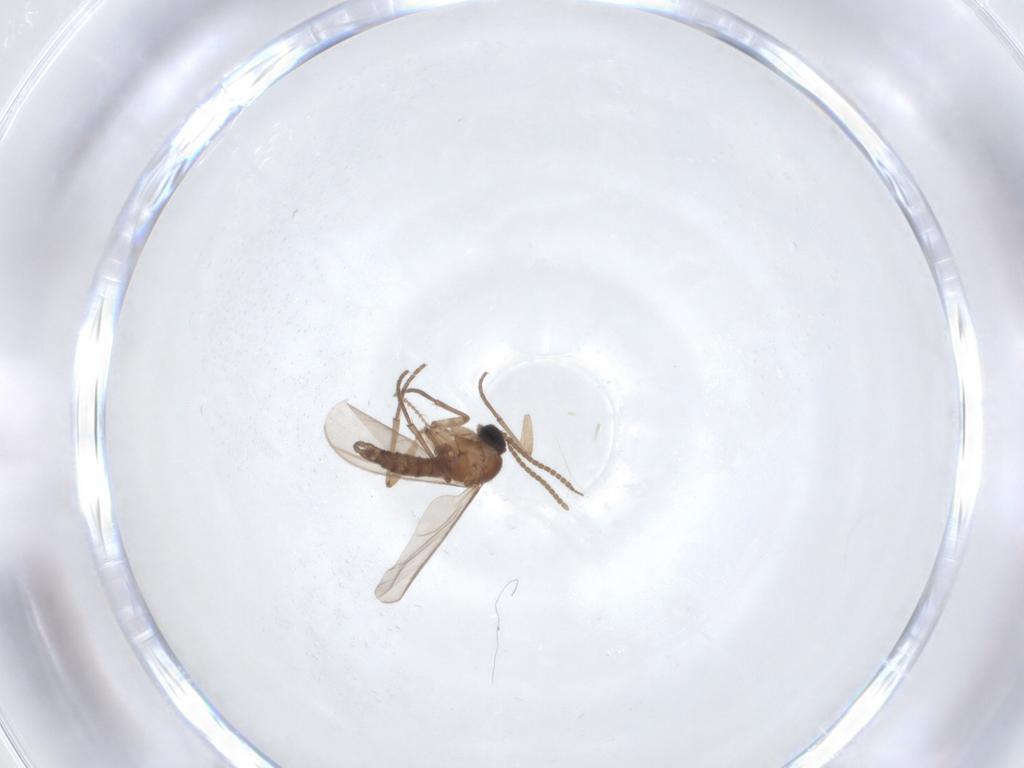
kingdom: Animalia
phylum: Arthropoda
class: Insecta
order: Diptera
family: Sciaridae
